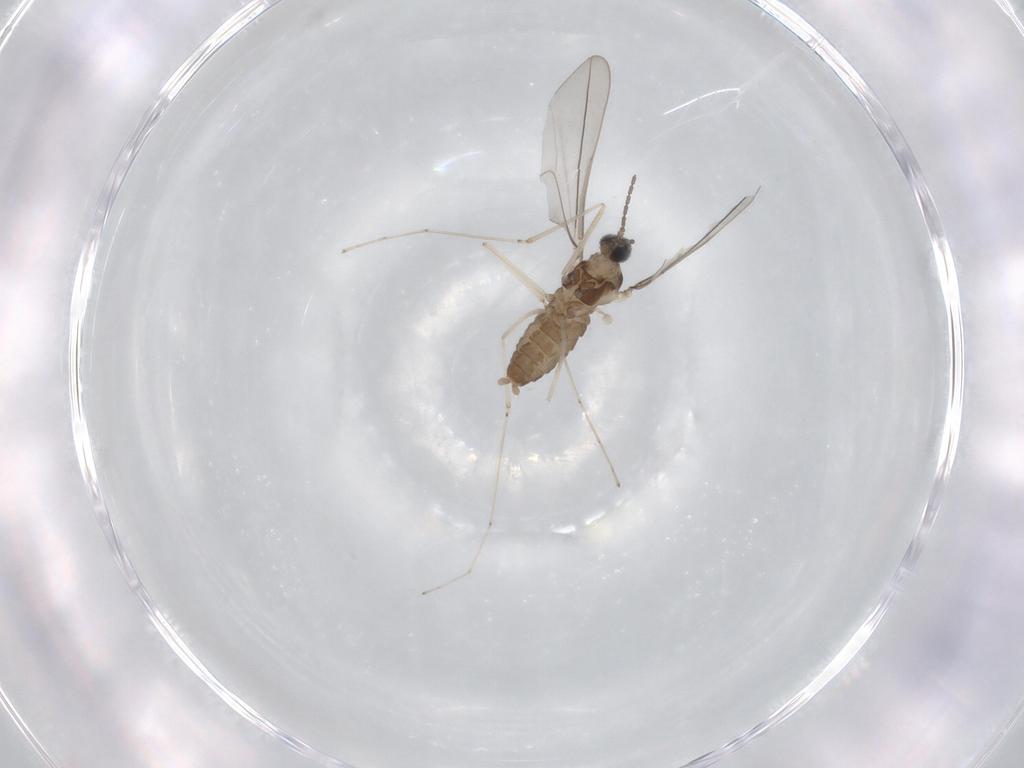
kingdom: Animalia
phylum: Arthropoda
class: Insecta
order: Diptera
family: Cecidomyiidae
